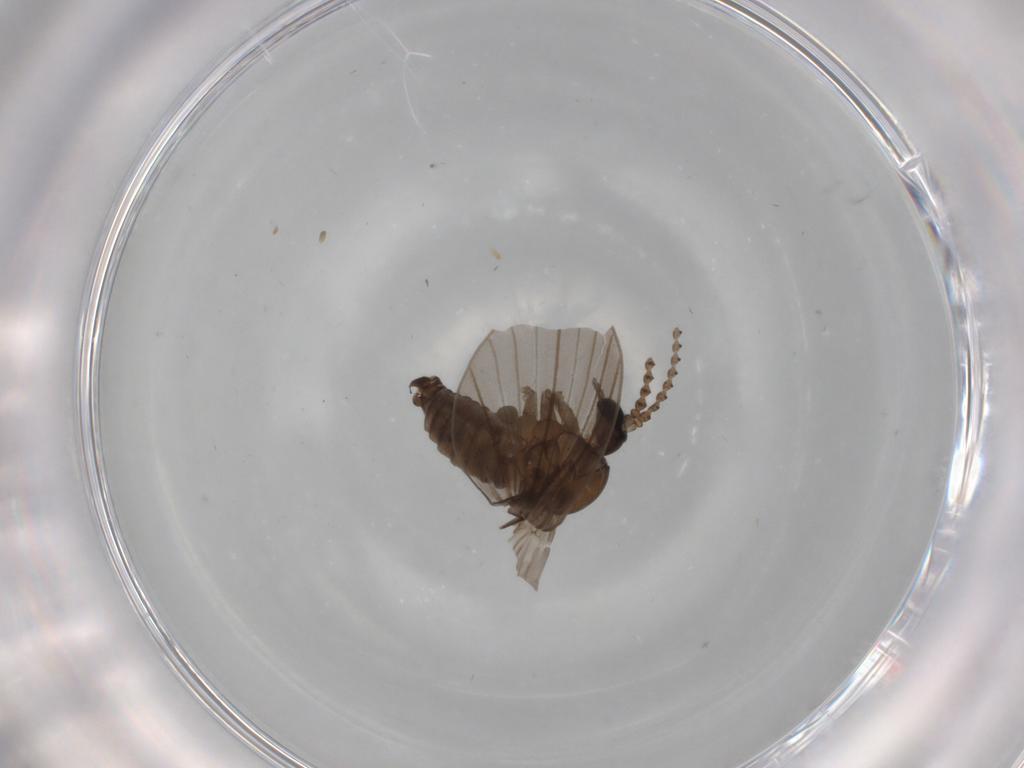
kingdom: Animalia
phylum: Arthropoda
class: Insecta
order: Diptera
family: Psychodidae
